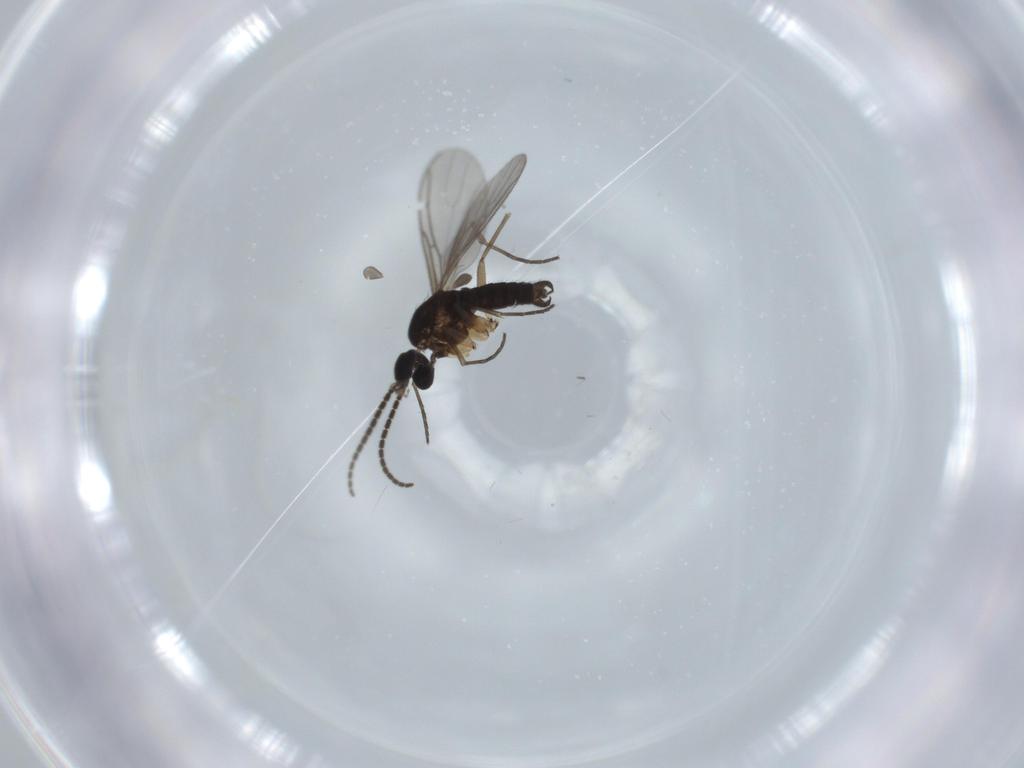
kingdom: Animalia
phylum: Arthropoda
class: Insecta
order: Diptera
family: Sciaridae
